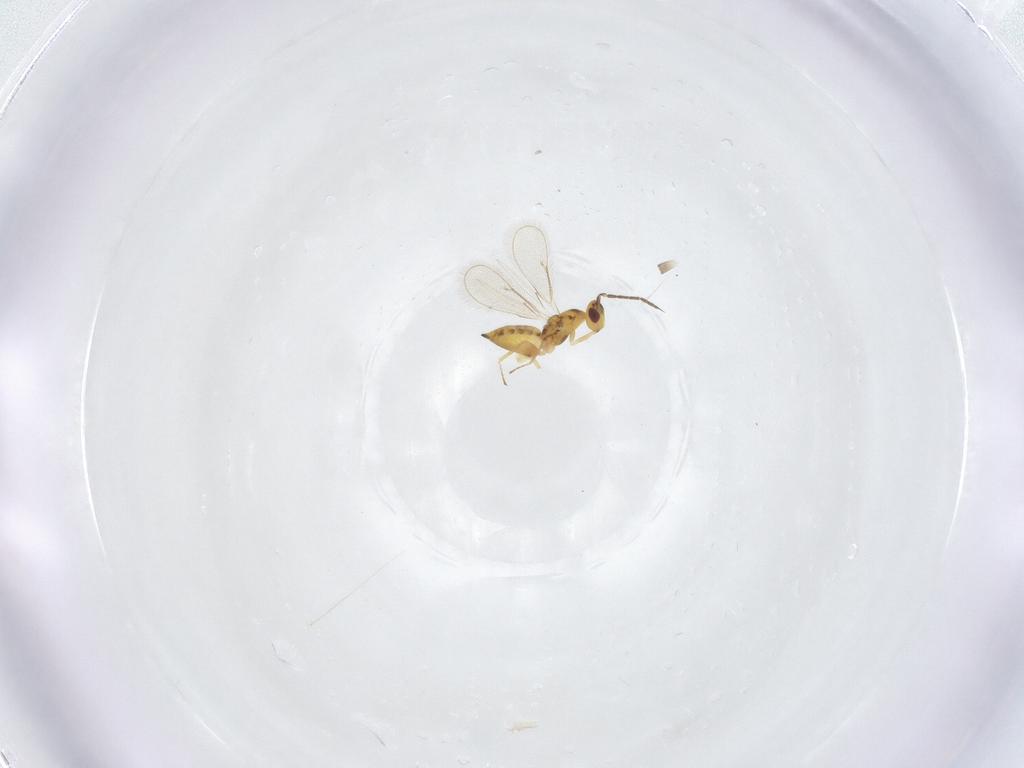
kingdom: Animalia
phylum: Arthropoda
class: Insecta
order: Hymenoptera
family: Eulophidae
